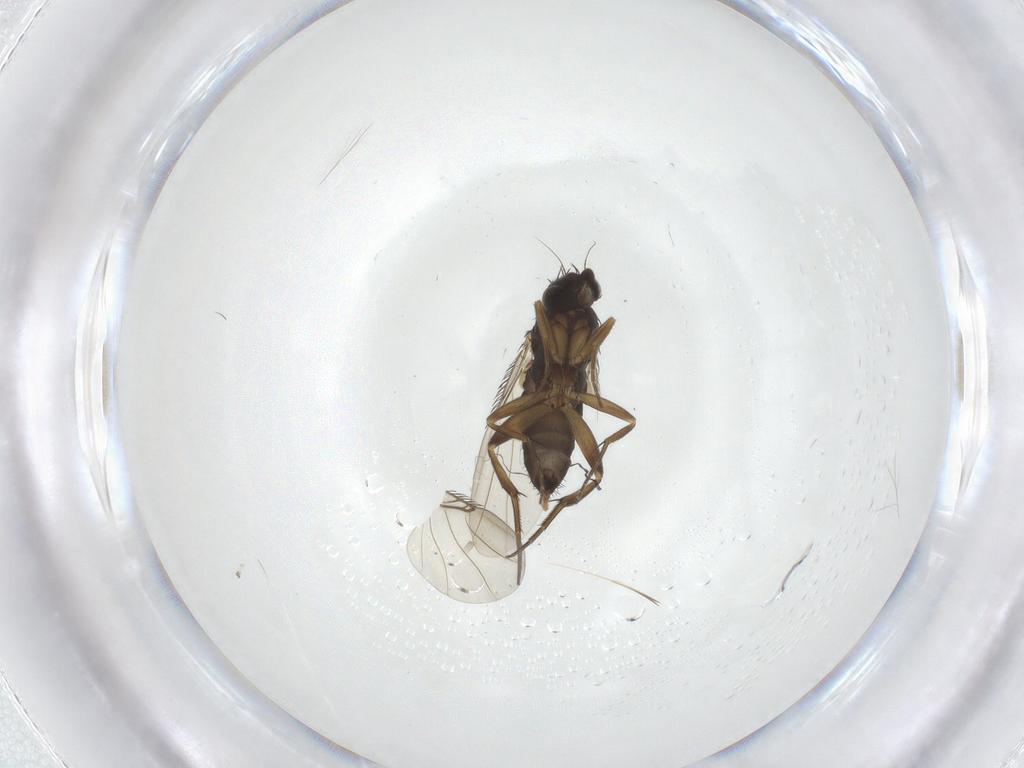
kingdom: Animalia
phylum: Arthropoda
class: Insecta
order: Diptera
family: Phoridae
